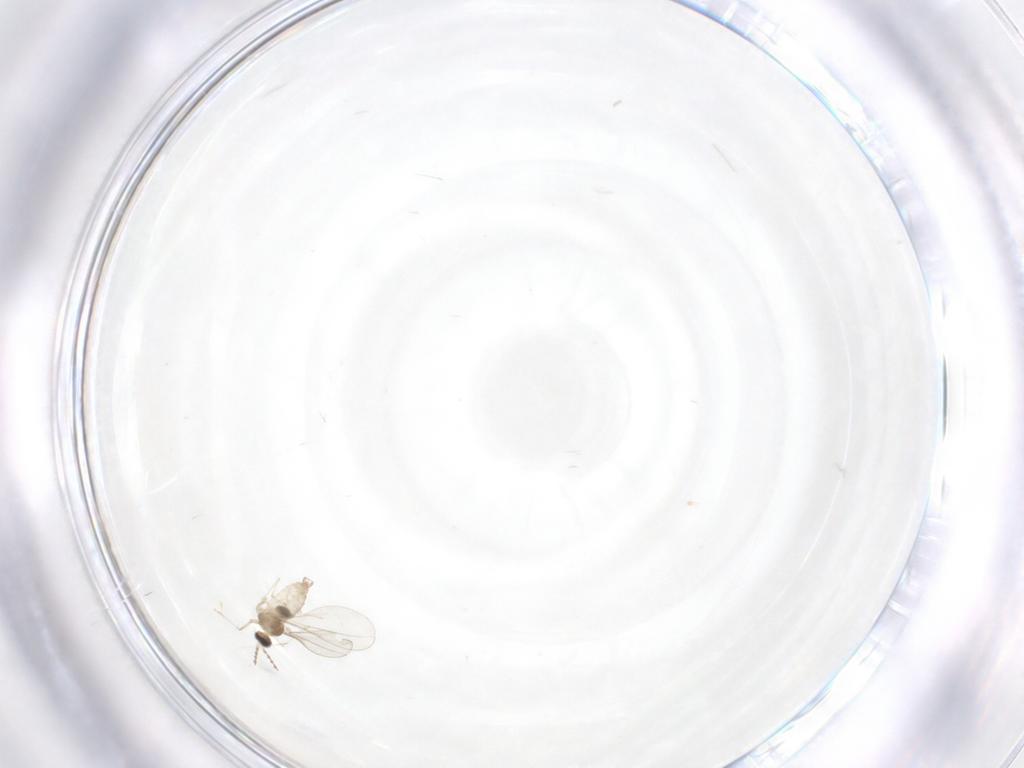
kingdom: Animalia
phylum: Arthropoda
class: Insecta
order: Diptera
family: Cecidomyiidae
